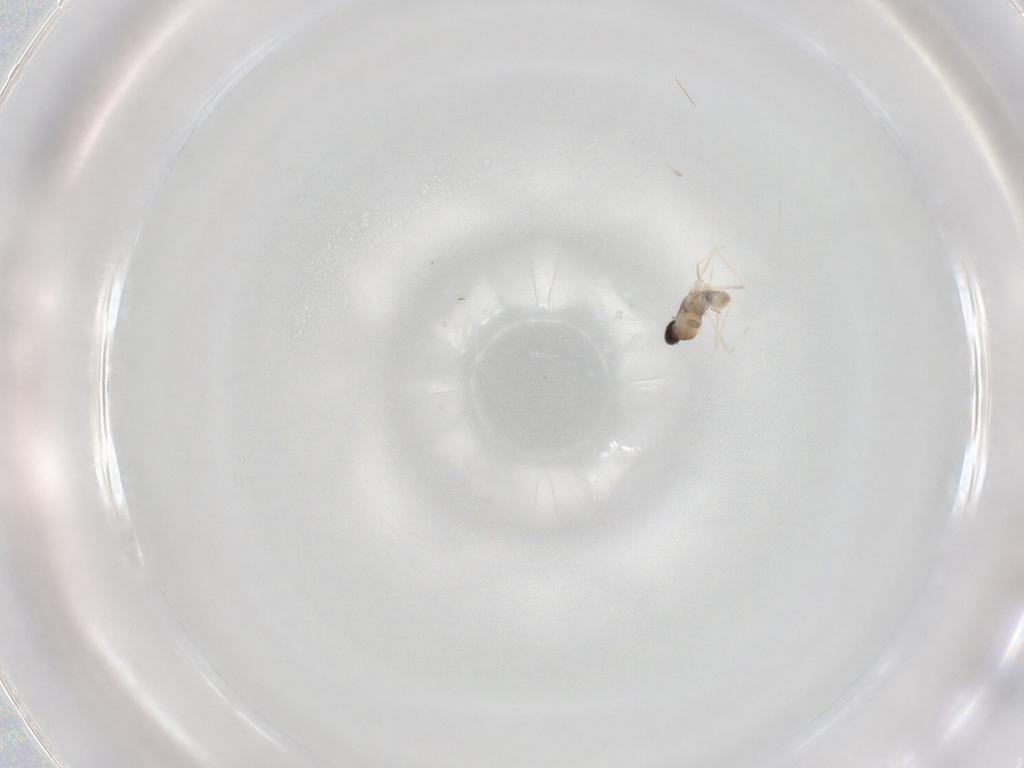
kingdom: Animalia
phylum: Arthropoda
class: Insecta
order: Diptera
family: Cecidomyiidae
